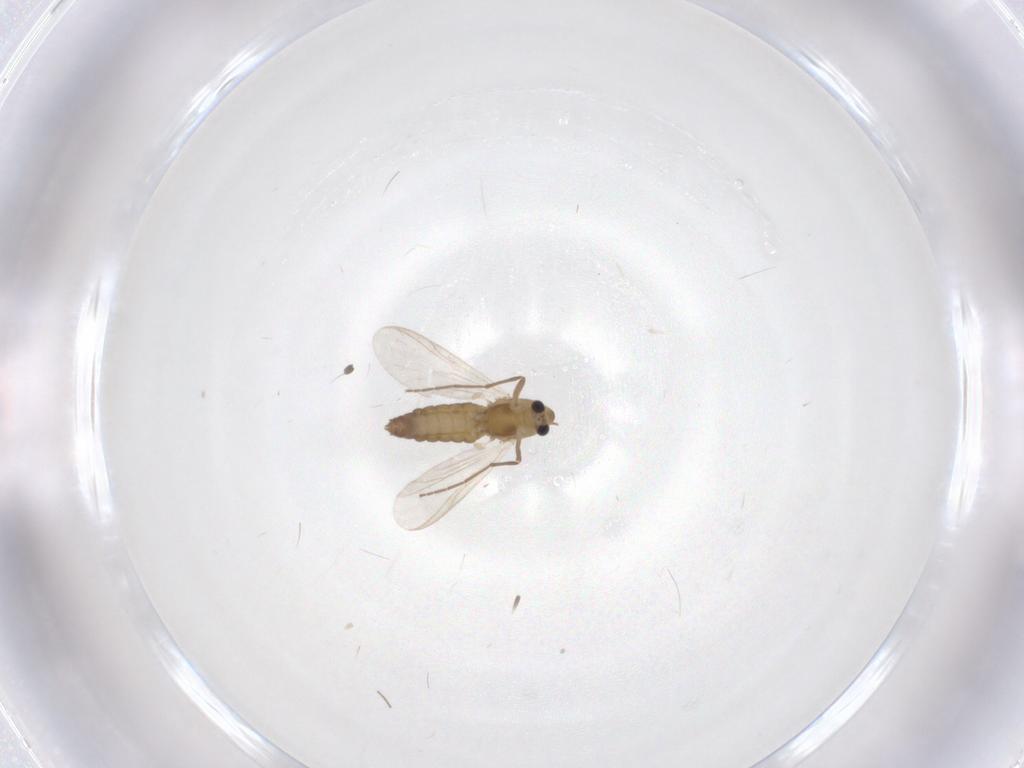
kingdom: Animalia
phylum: Arthropoda
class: Insecta
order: Diptera
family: Chironomidae
